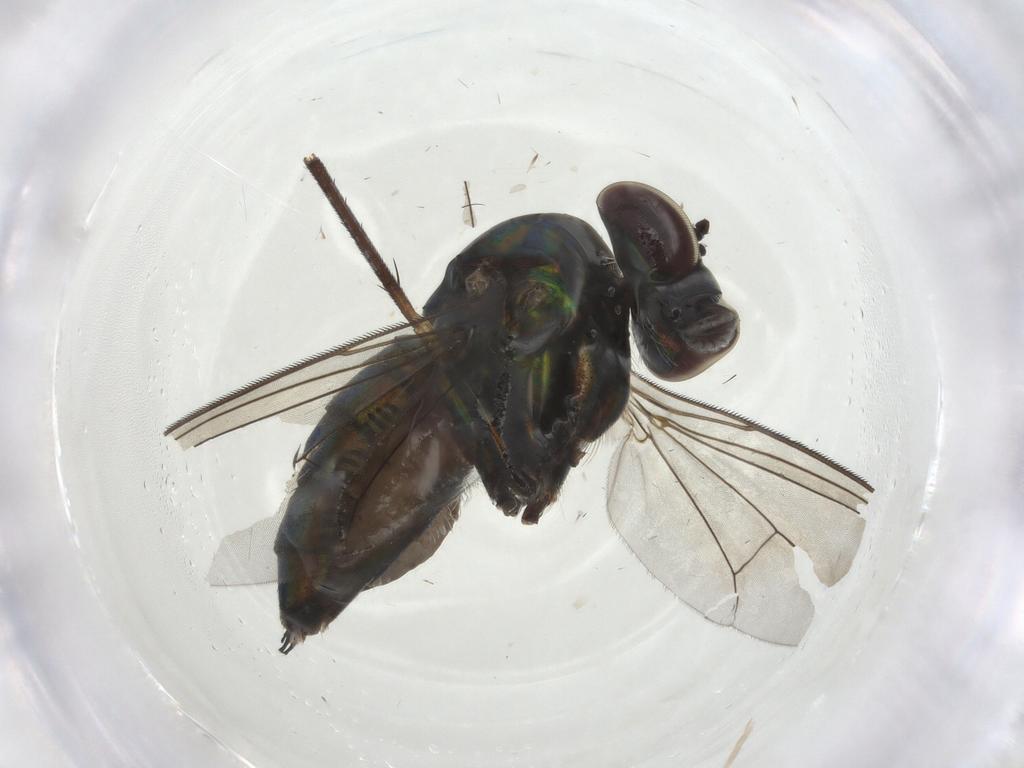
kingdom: Animalia
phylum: Arthropoda
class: Insecta
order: Diptera
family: Dolichopodidae
